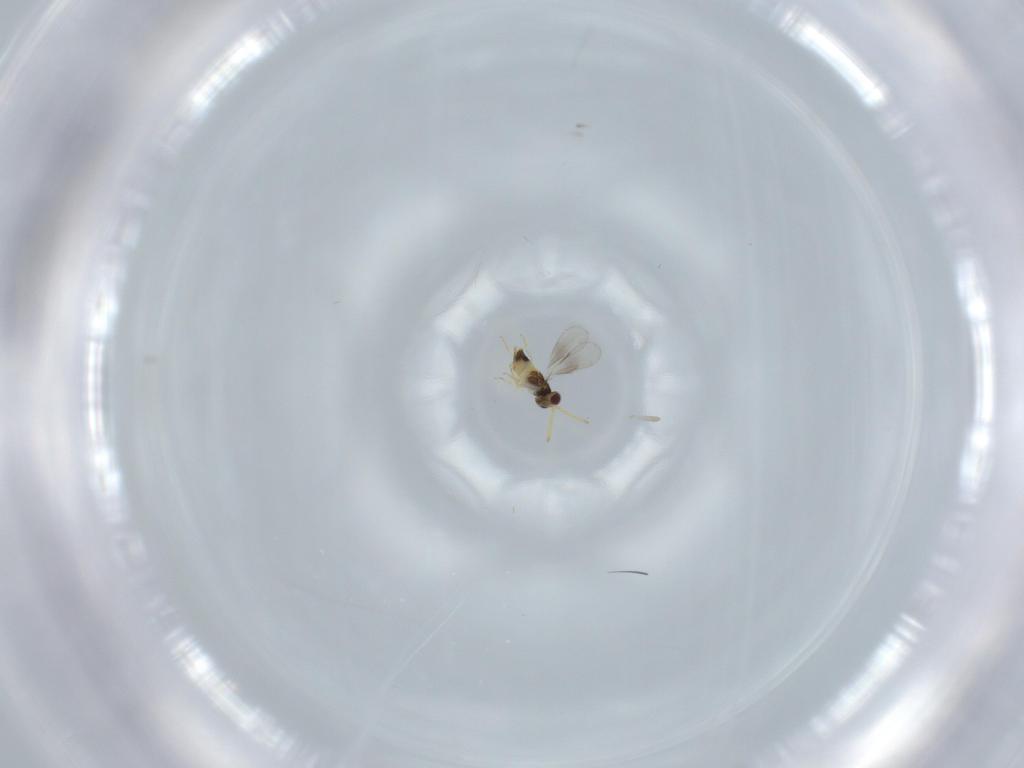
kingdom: Animalia
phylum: Arthropoda
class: Insecta
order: Hymenoptera
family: Aphelinidae
